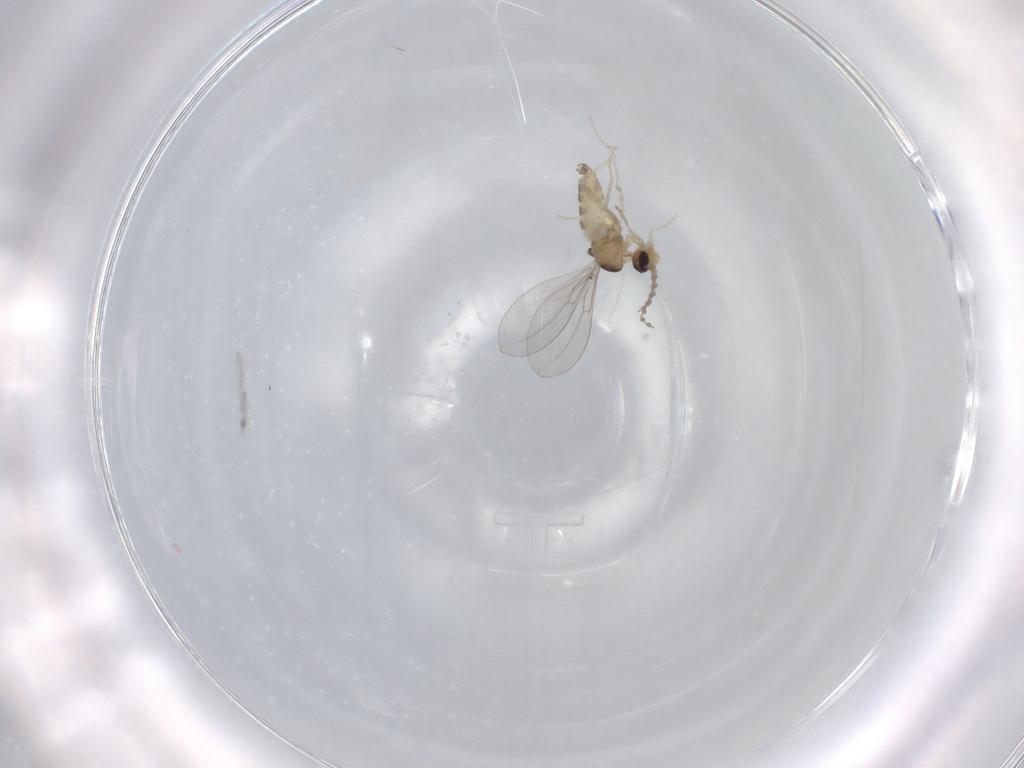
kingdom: Animalia
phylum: Arthropoda
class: Insecta
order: Diptera
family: Cecidomyiidae
